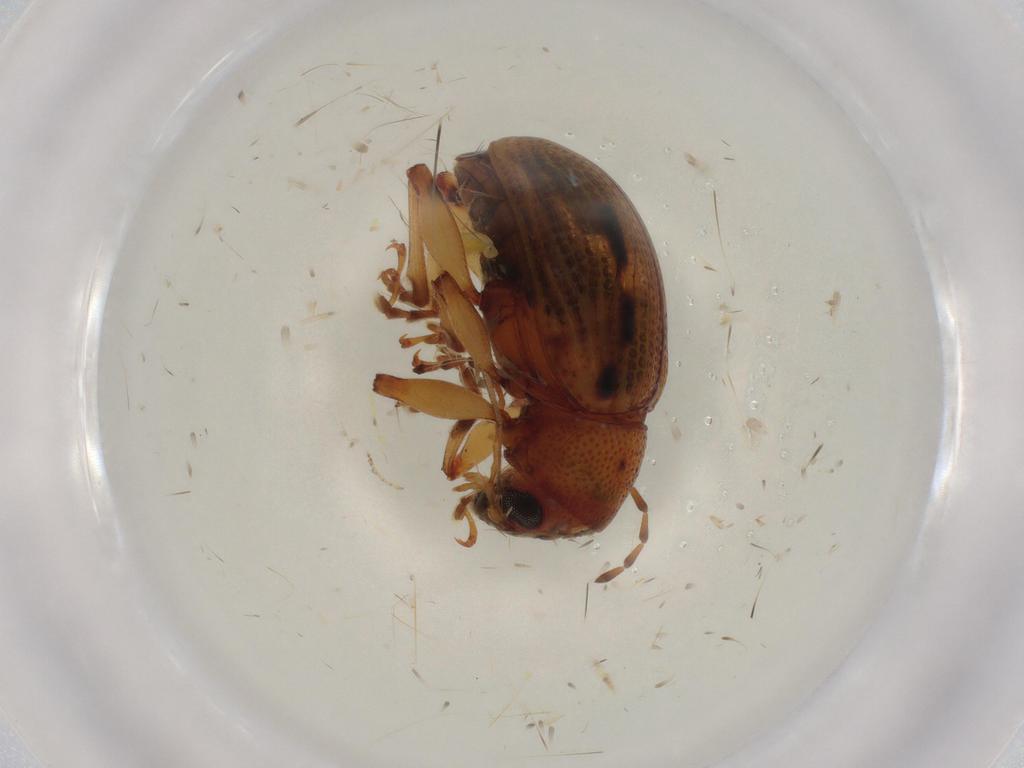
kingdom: Animalia
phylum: Arthropoda
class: Insecta
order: Coleoptera
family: Chrysomelidae
